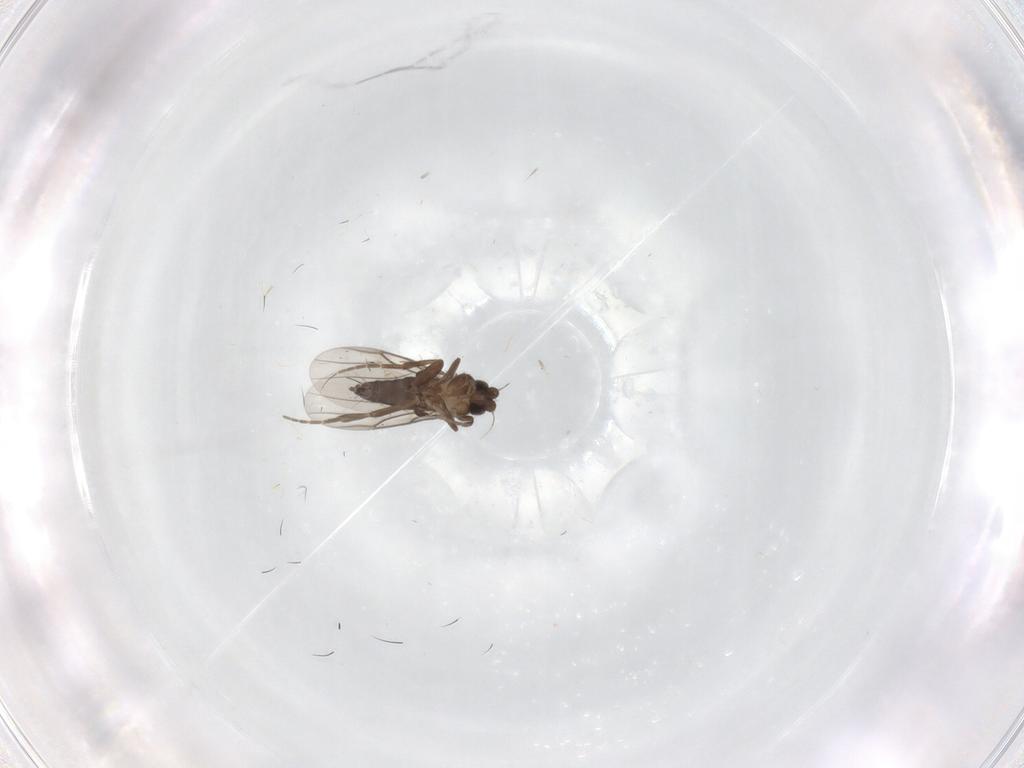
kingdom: Animalia
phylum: Arthropoda
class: Insecta
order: Diptera
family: Phoridae
